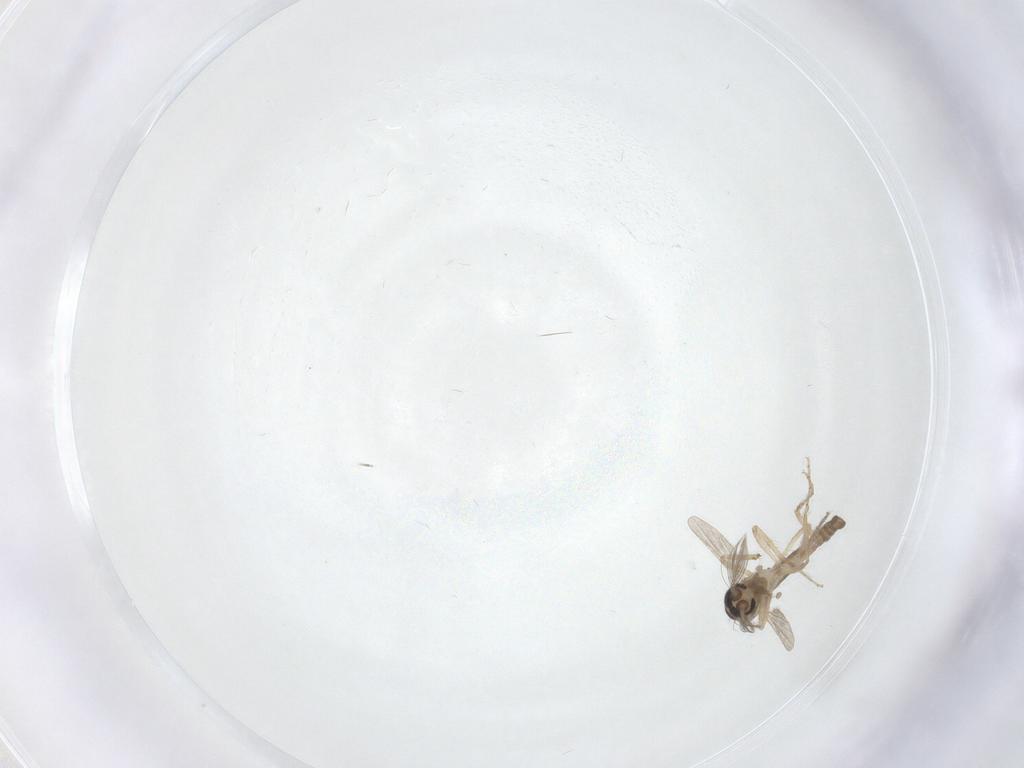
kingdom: Animalia
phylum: Arthropoda
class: Insecta
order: Diptera
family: Ceratopogonidae
